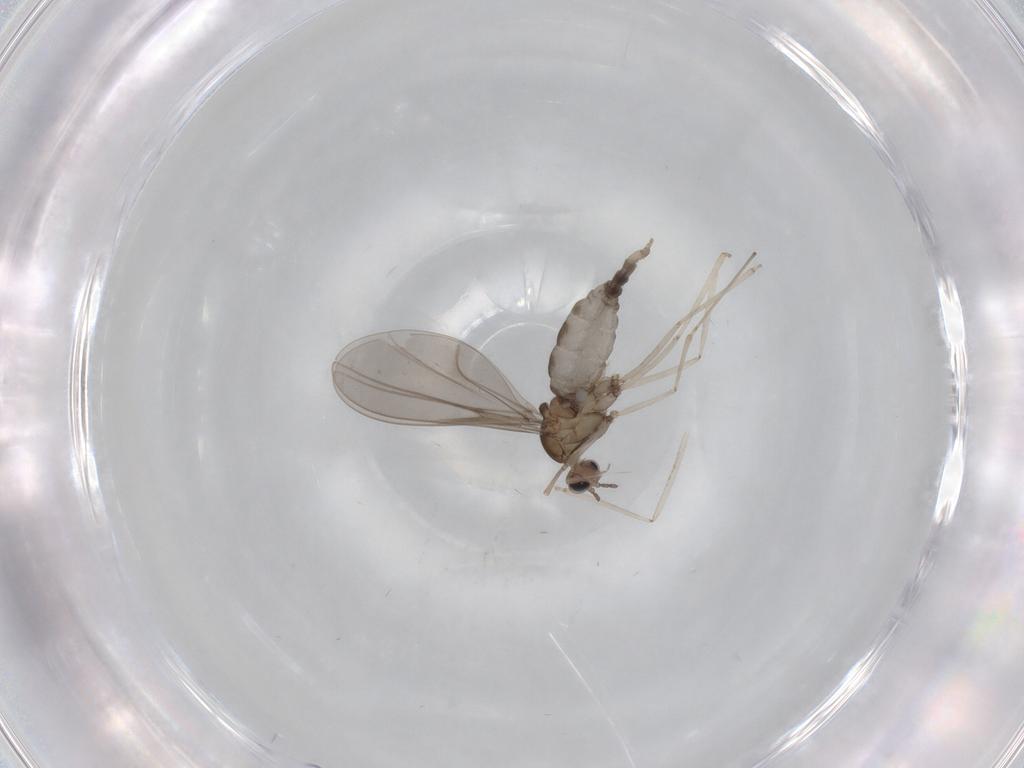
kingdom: Animalia
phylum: Arthropoda
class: Insecta
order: Diptera
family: Cecidomyiidae
